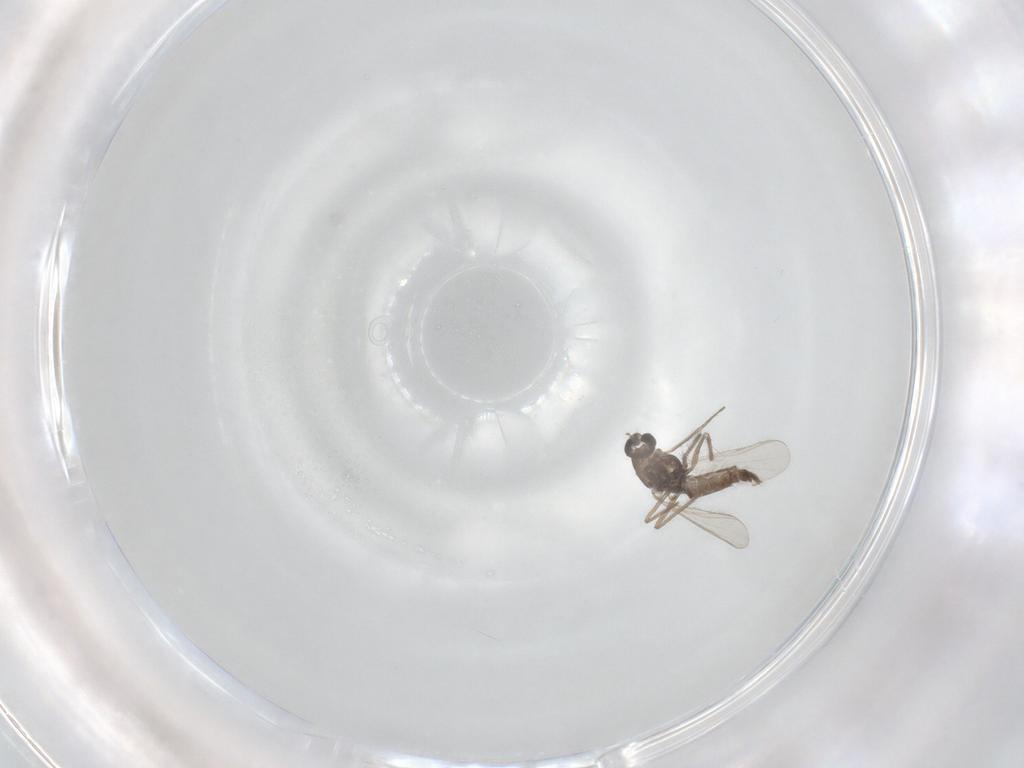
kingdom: Animalia
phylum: Arthropoda
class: Insecta
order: Diptera
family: Chironomidae
